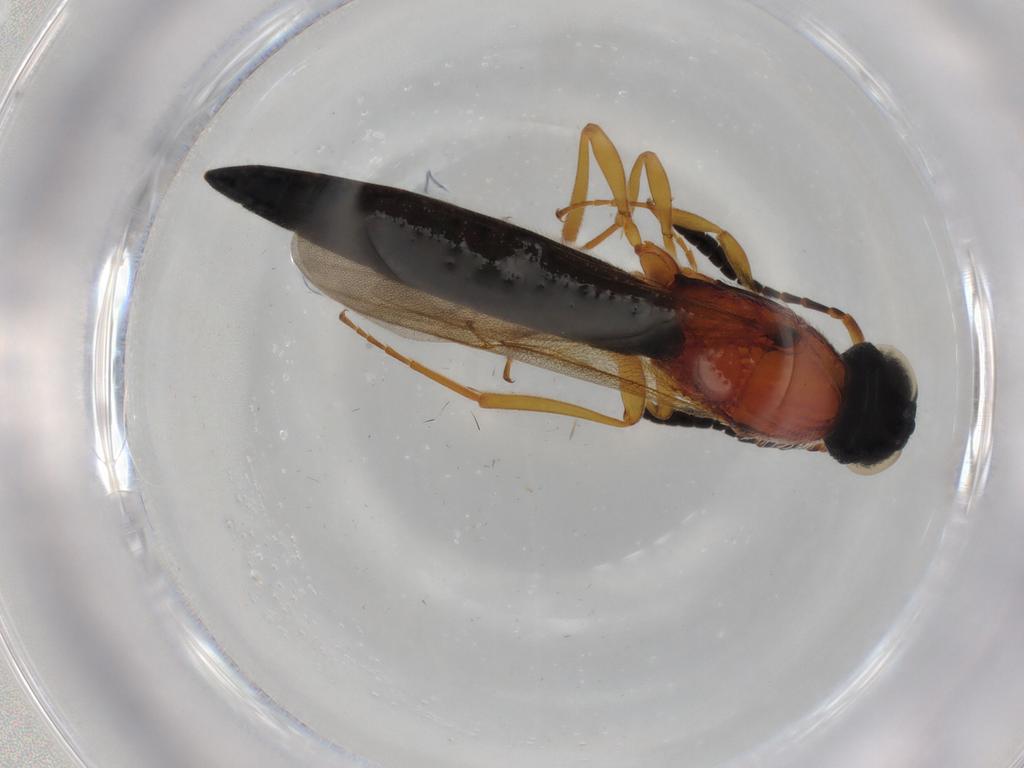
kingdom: Animalia
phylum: Arthropoda
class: Insecta
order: Hymenoptera
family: Scelionidae
